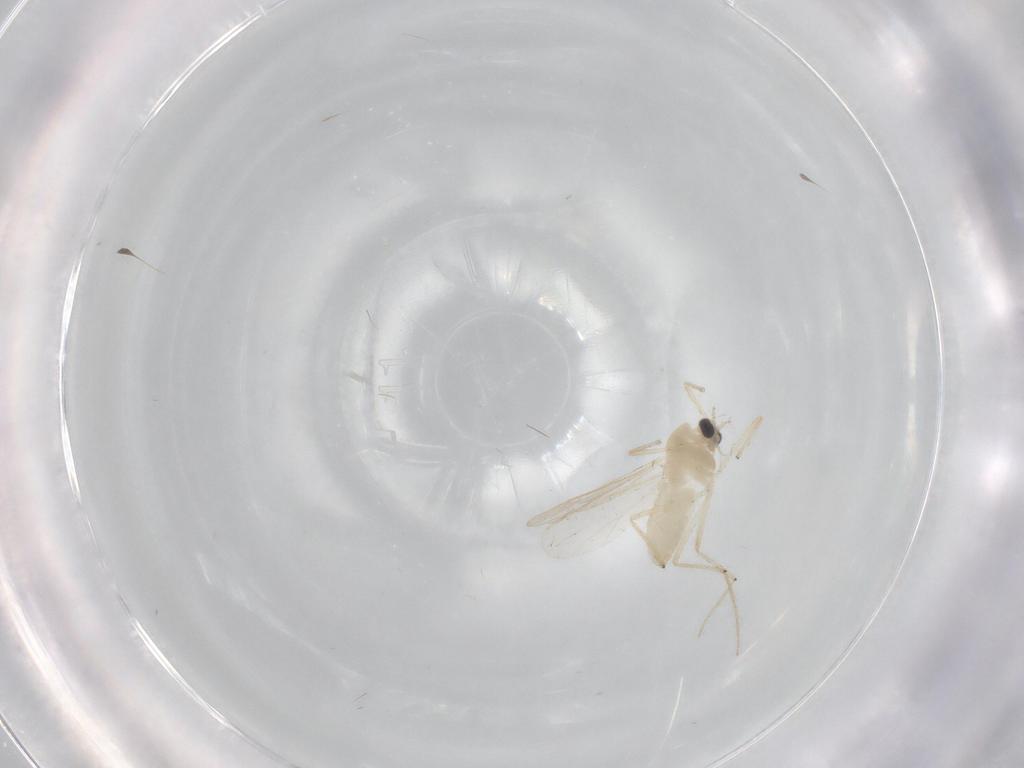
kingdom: Animalia
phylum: Arthropoda
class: Insecta
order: Diptera
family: Chironomidae
